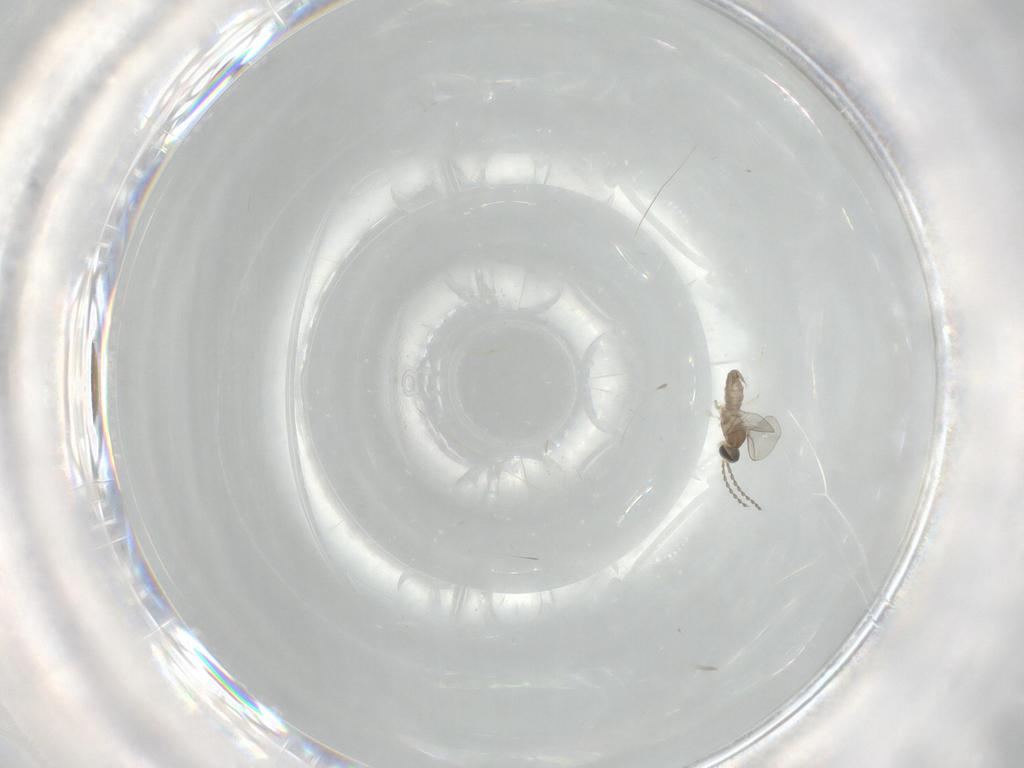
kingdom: Animalia
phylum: Arthropoda
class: Insecta
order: Diptera
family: Cecidomyiidae
